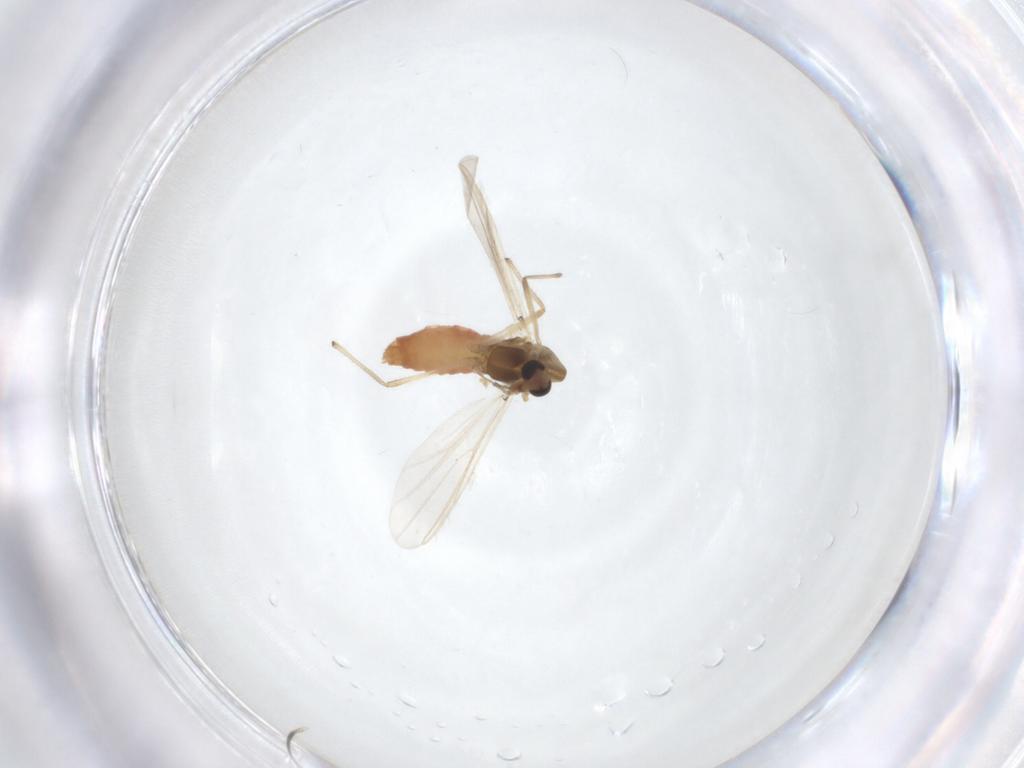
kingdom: Animalia
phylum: Arthropoda
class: Insecta
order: Diptera
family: Chironomidae
